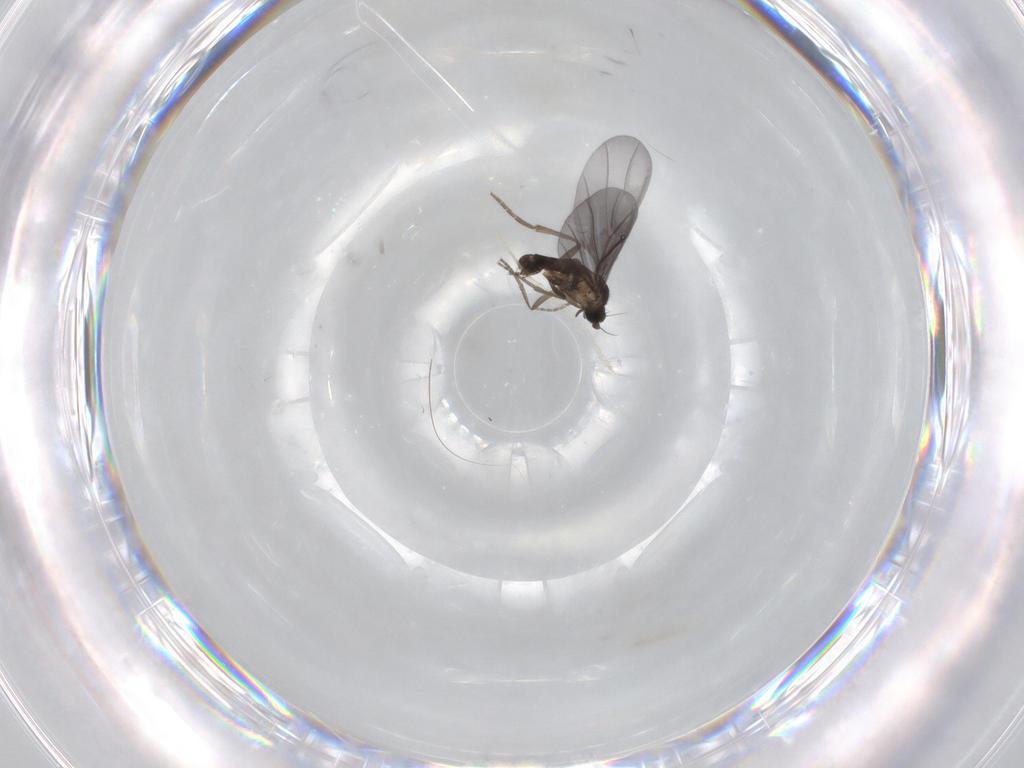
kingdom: Animalia
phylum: Arthropoda
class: Insecta
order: Diptera
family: Phoridae
